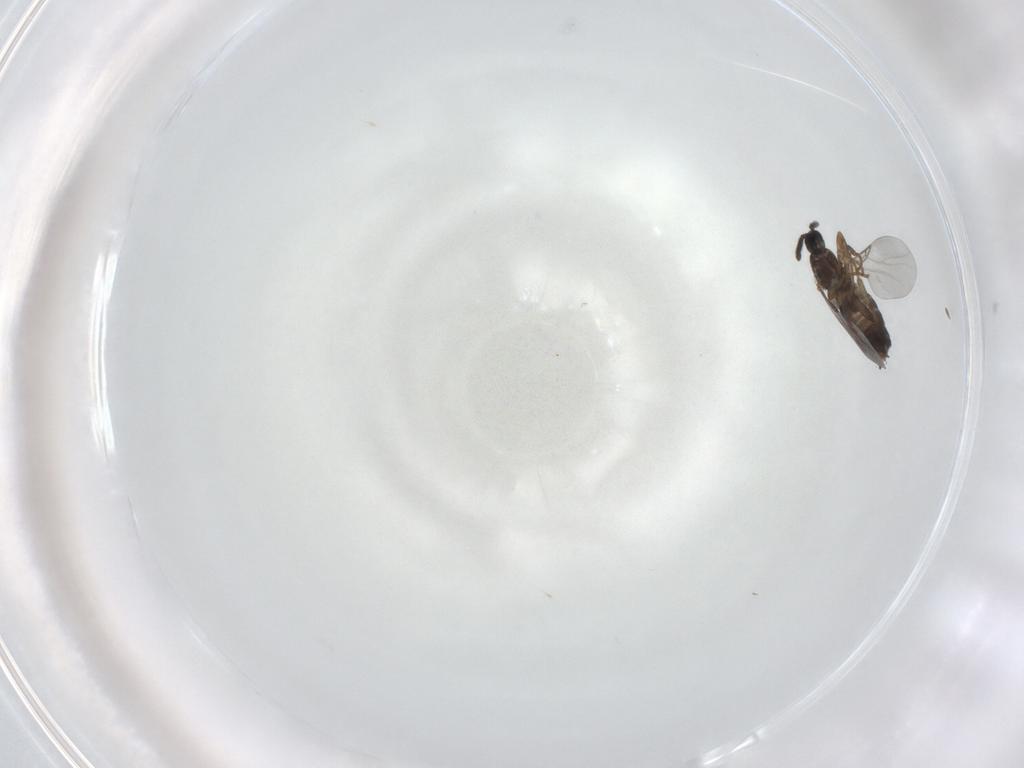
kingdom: Animalia
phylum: Arthropoda
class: Insecta
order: Diptera
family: Scatopsidae
